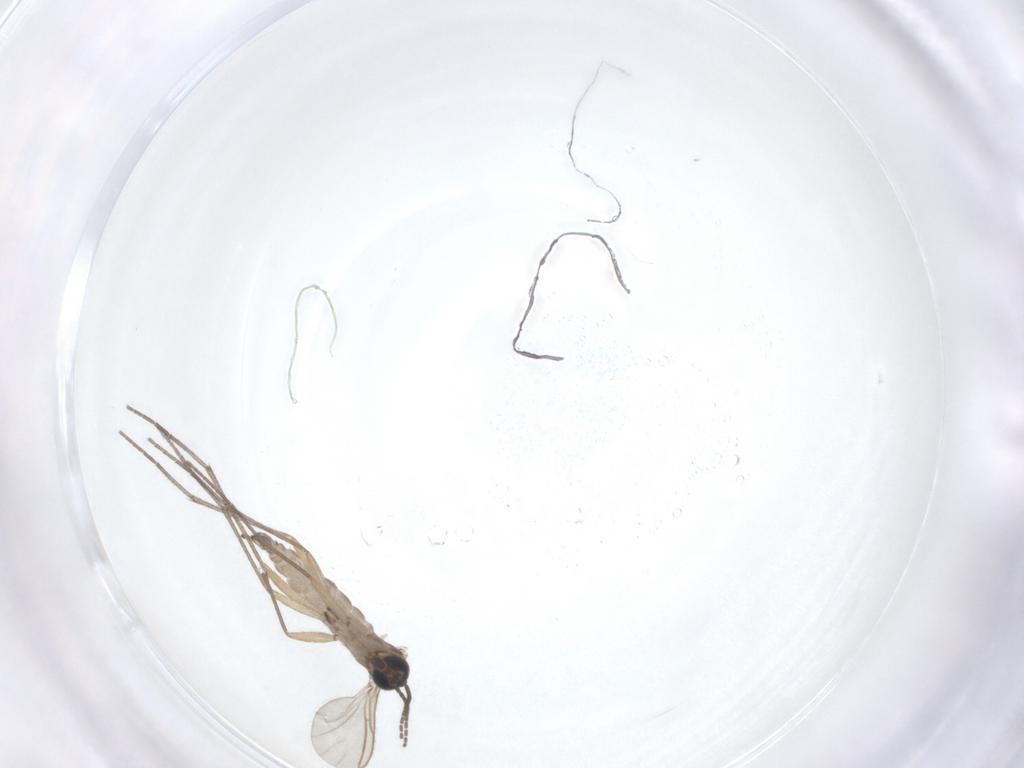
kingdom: Animalia
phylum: Arthropoda
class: Insecta
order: Diptera
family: Sciaridae
